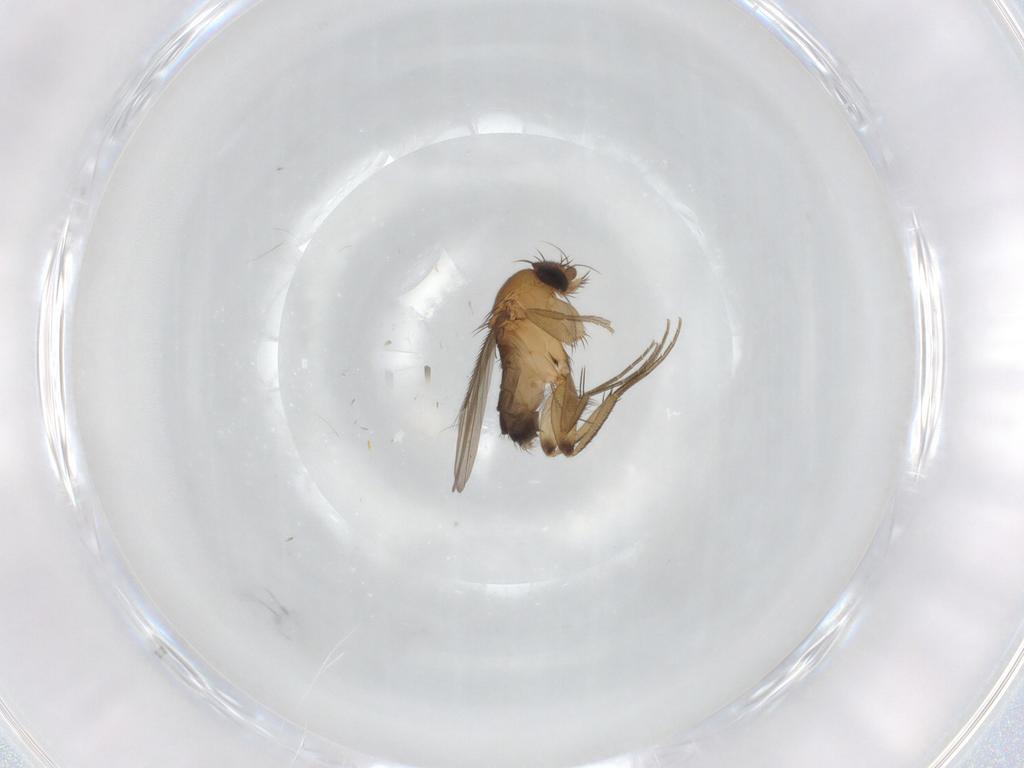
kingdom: Animalia
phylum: Arthropoda
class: Insecta
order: Diptera
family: Phoridae
